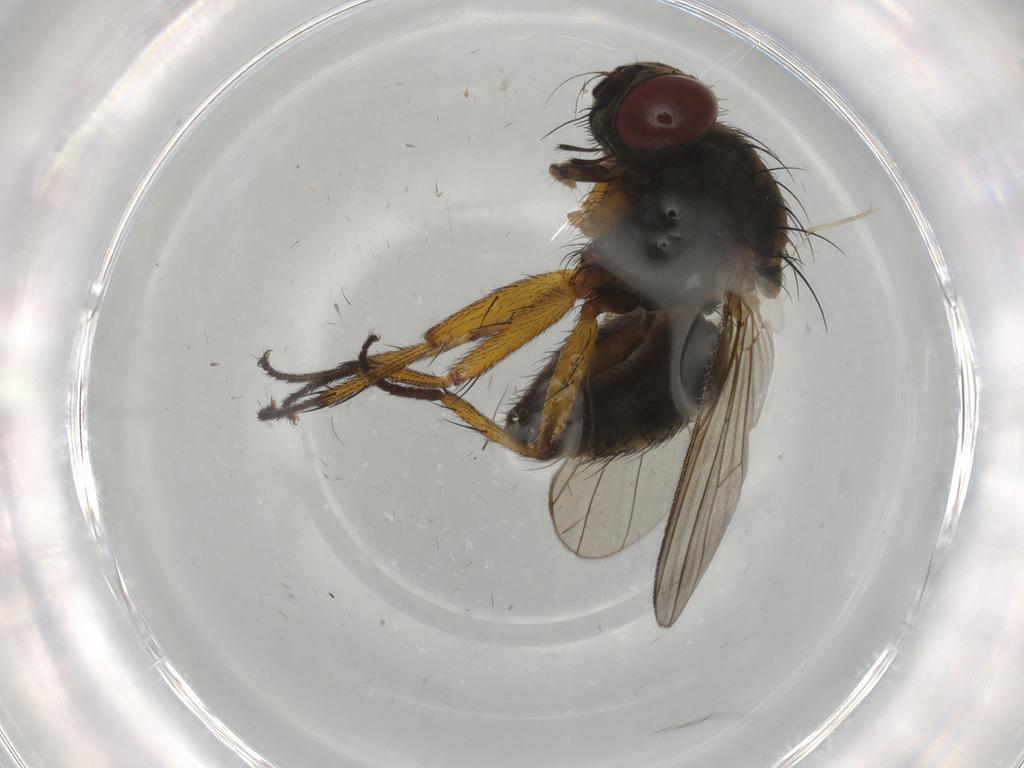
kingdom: Animalia
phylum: Arthropoda
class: Insecta
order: Diptera
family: Muscidae
